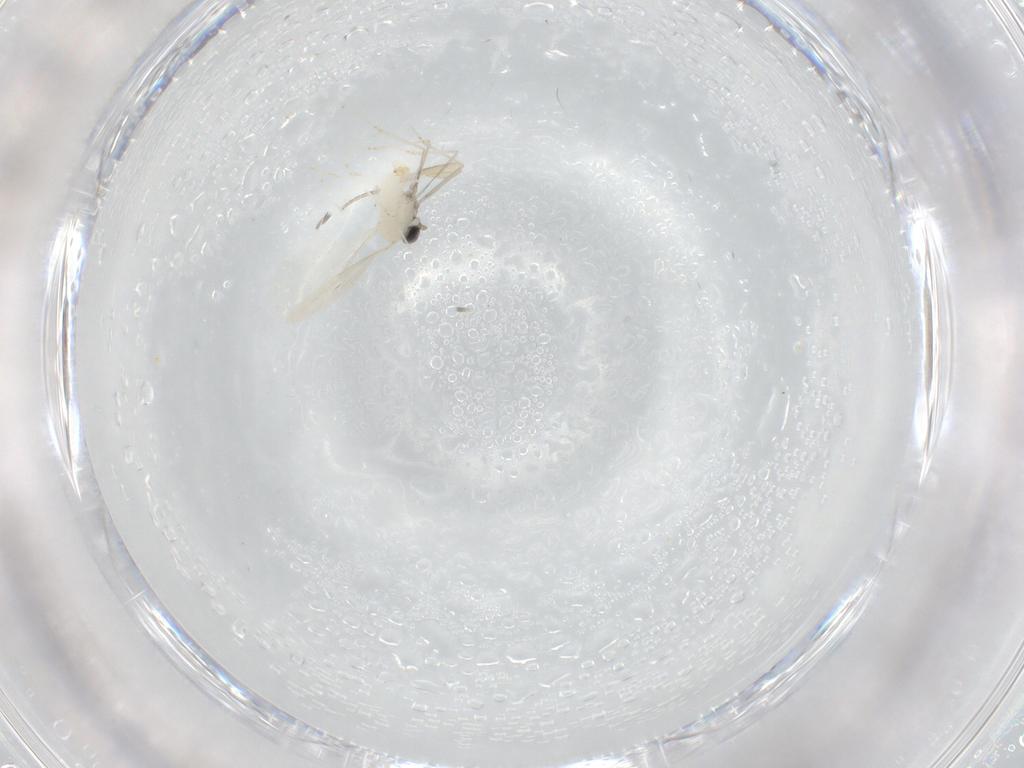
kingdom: Animalia
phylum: Arthropoda
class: Insecta
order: Diptera
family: Cecidomyiidae
